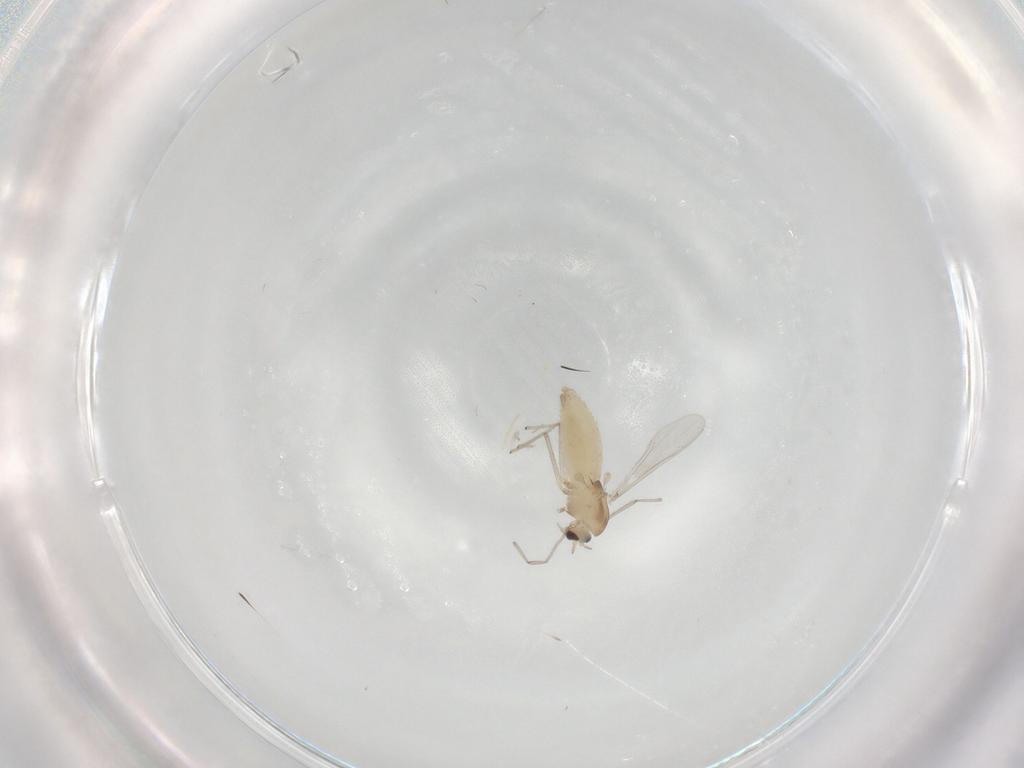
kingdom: Animalia
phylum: Arthropoda
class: Insecta
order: Diptera
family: Chironomidae
